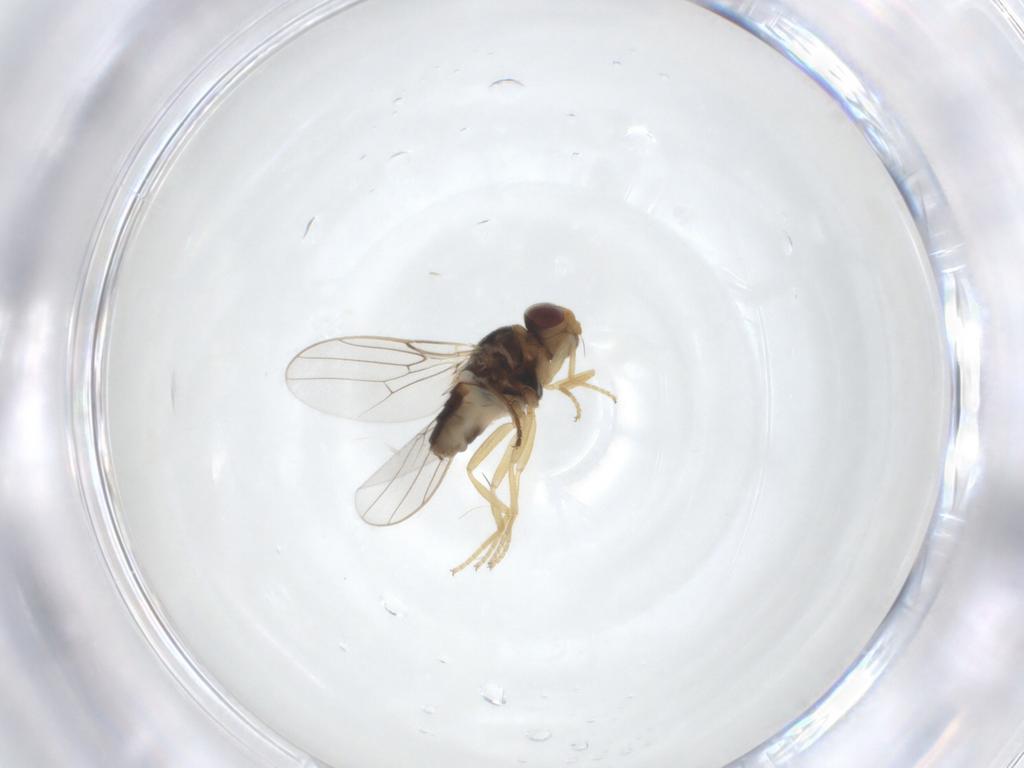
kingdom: Animalia
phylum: Arthropoda
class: Insecta
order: Diptera
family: Chloropidae
